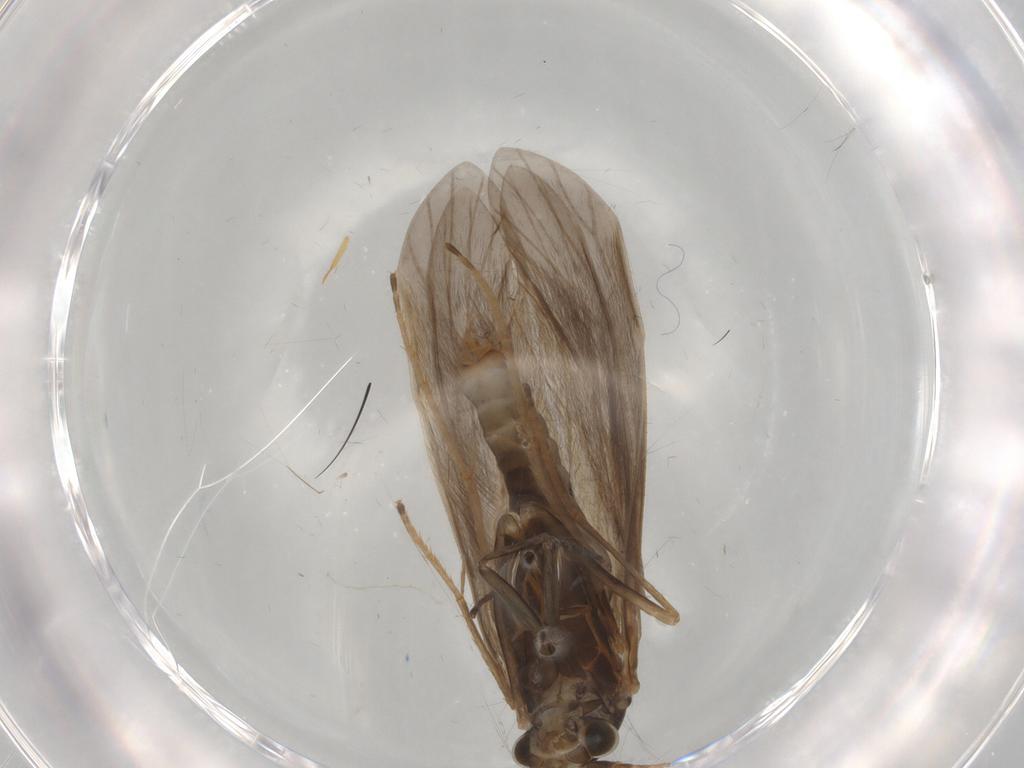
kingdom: Animalia
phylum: Arthropoda
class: Insecta
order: Trichoptera
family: Leptoceridae
